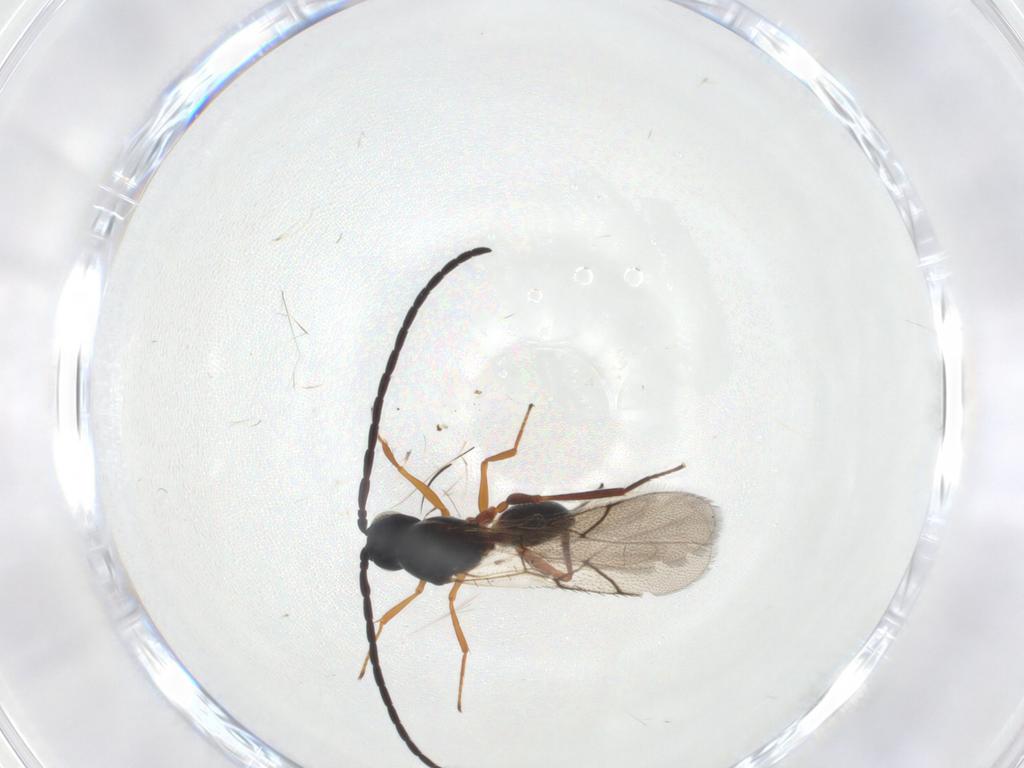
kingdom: Animalia
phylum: Arthropoda
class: Insecta
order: Hymenoptera
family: Figitidae
